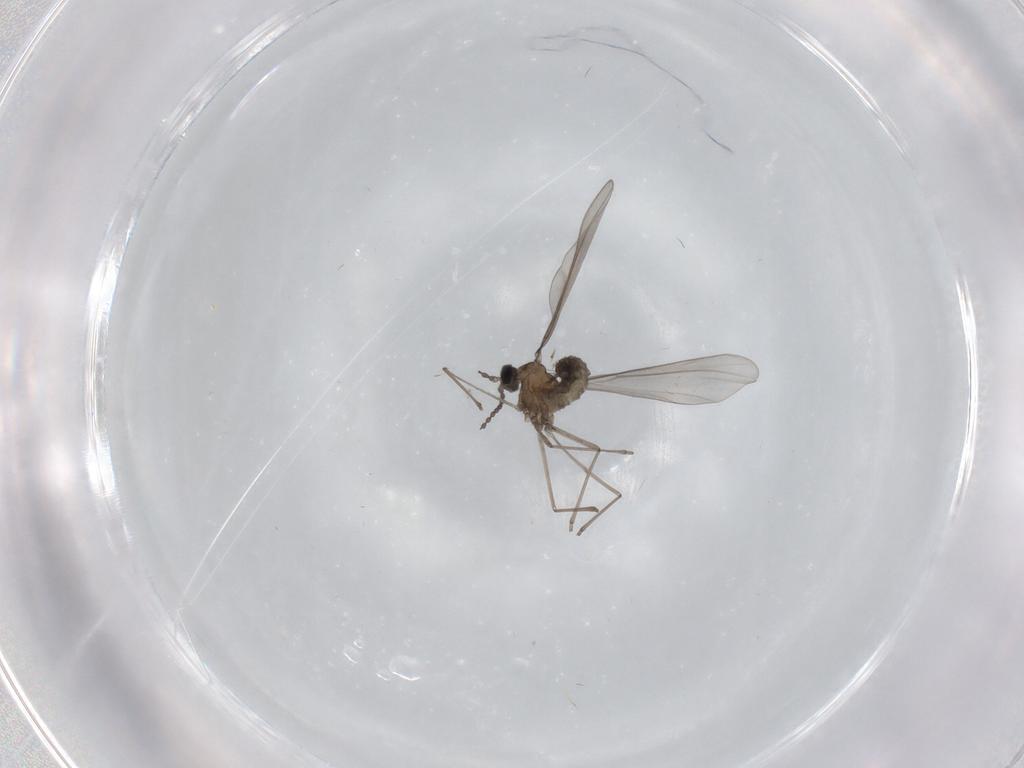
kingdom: Animalia
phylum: Arthropoda
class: Insecta
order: Diptera
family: Cecidomyiidae
